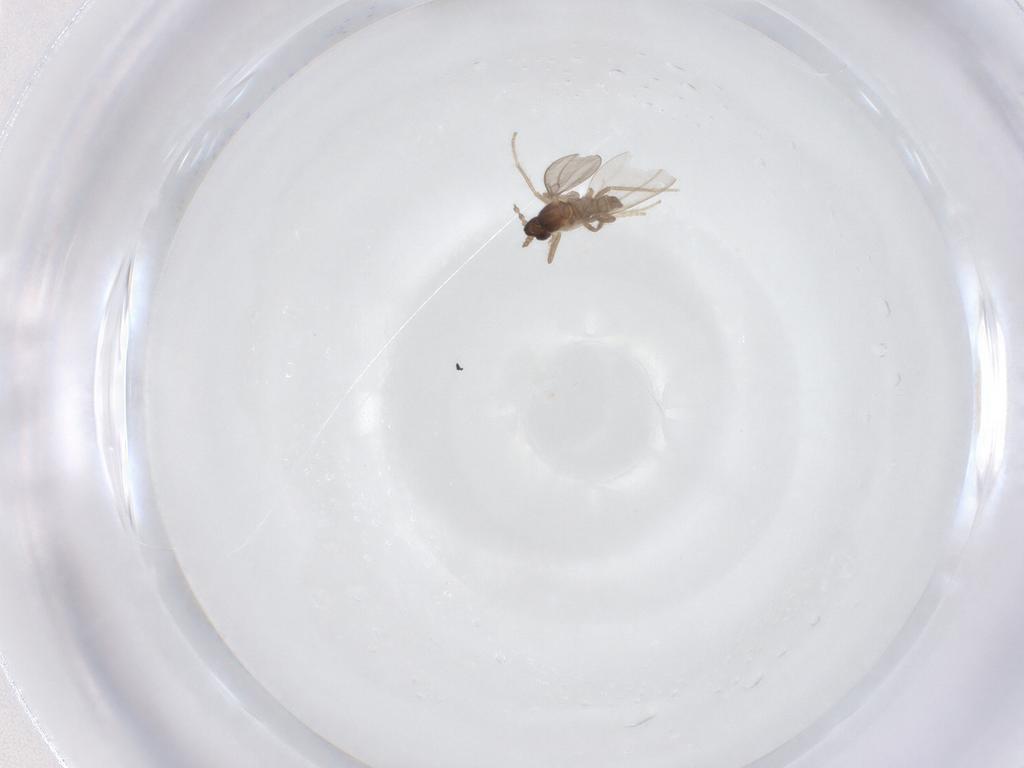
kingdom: Animalia
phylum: Arthropoda
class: Insecta
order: Diptera
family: Cecidomyiidae
